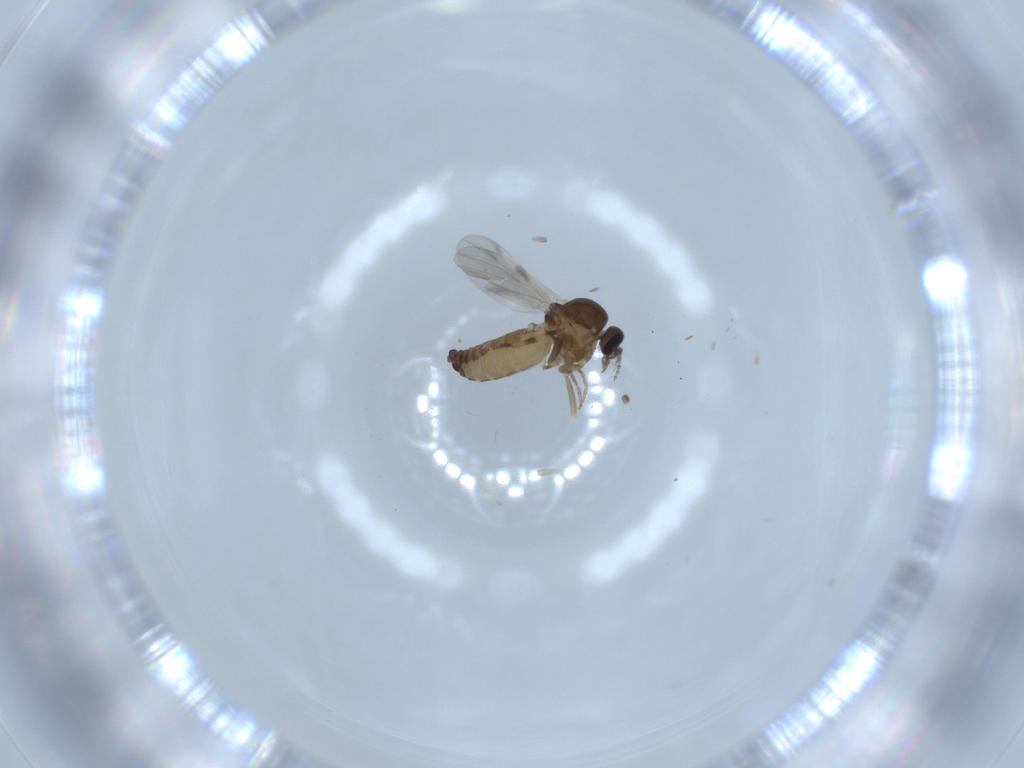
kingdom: Animalia
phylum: Arthropoda
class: Insecta
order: Diptera
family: Ceratopogonidae
